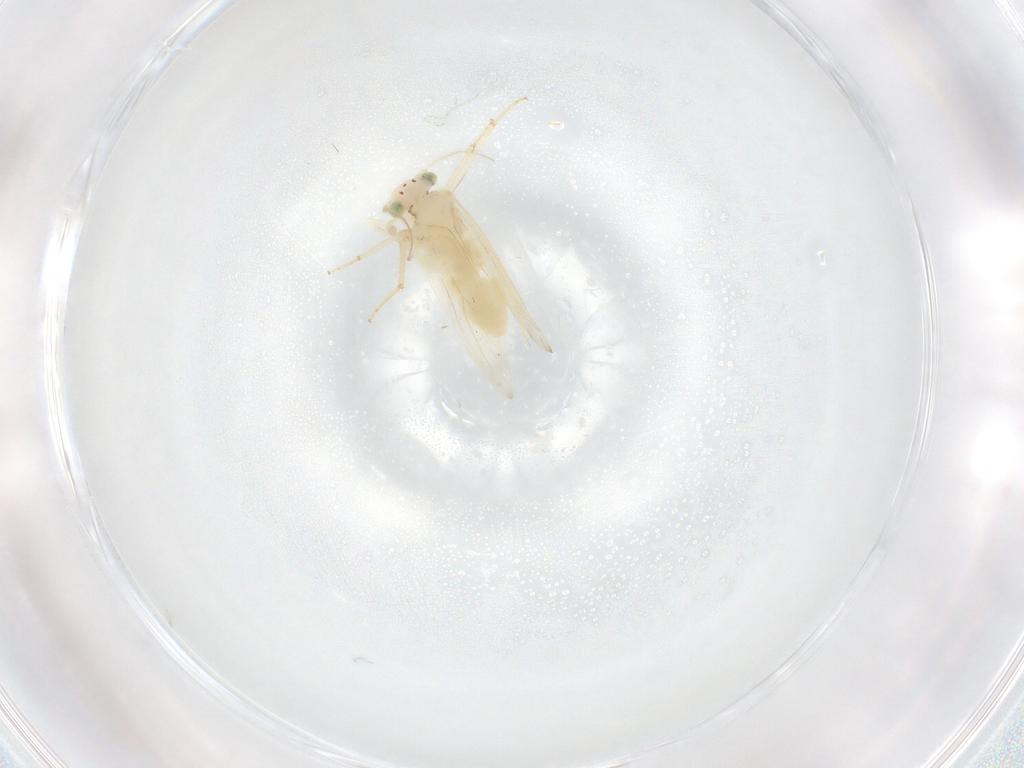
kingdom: Animalia
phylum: Arthropoda
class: Insecta
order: Psocodea
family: Lepidopsocidae
